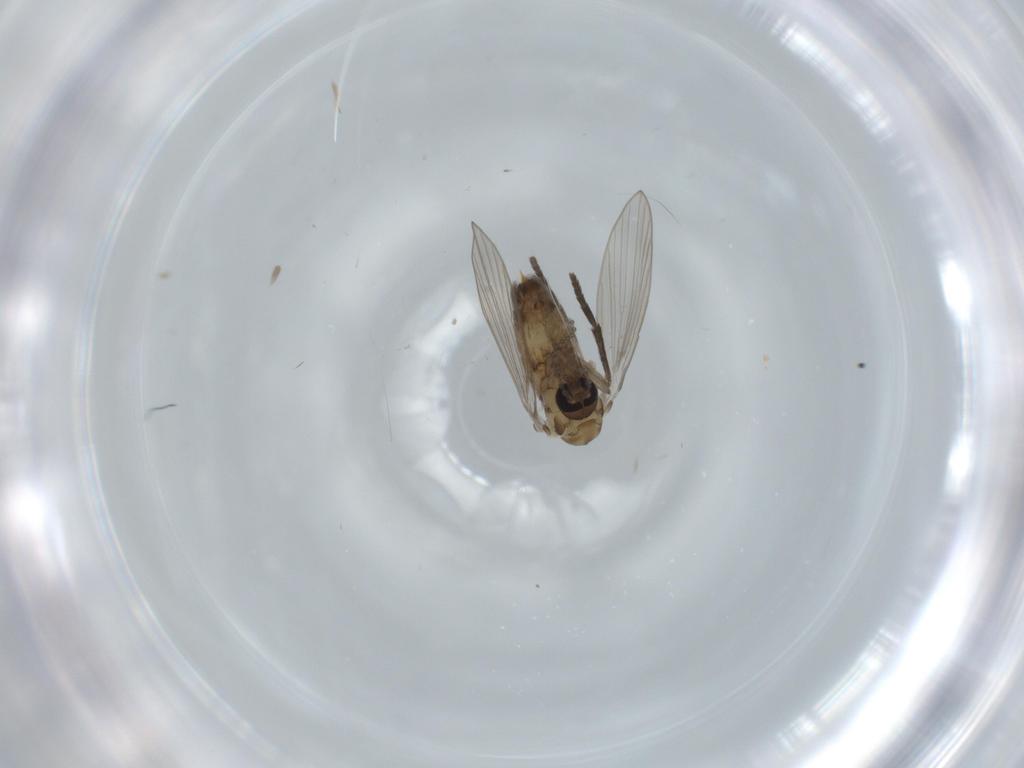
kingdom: Animalia
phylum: Arthropoda
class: Insecta
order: Diptera
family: Psychodidae
